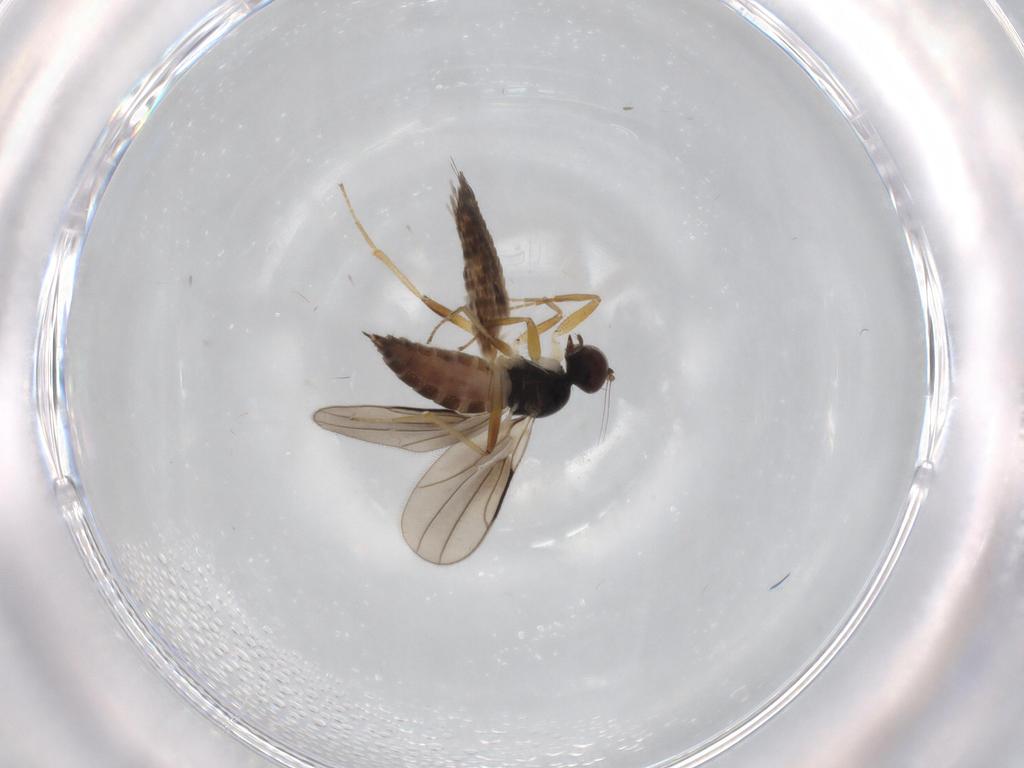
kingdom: Animalia
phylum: Arthropoda
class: Insecta
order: Diptera
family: Hybotidae
